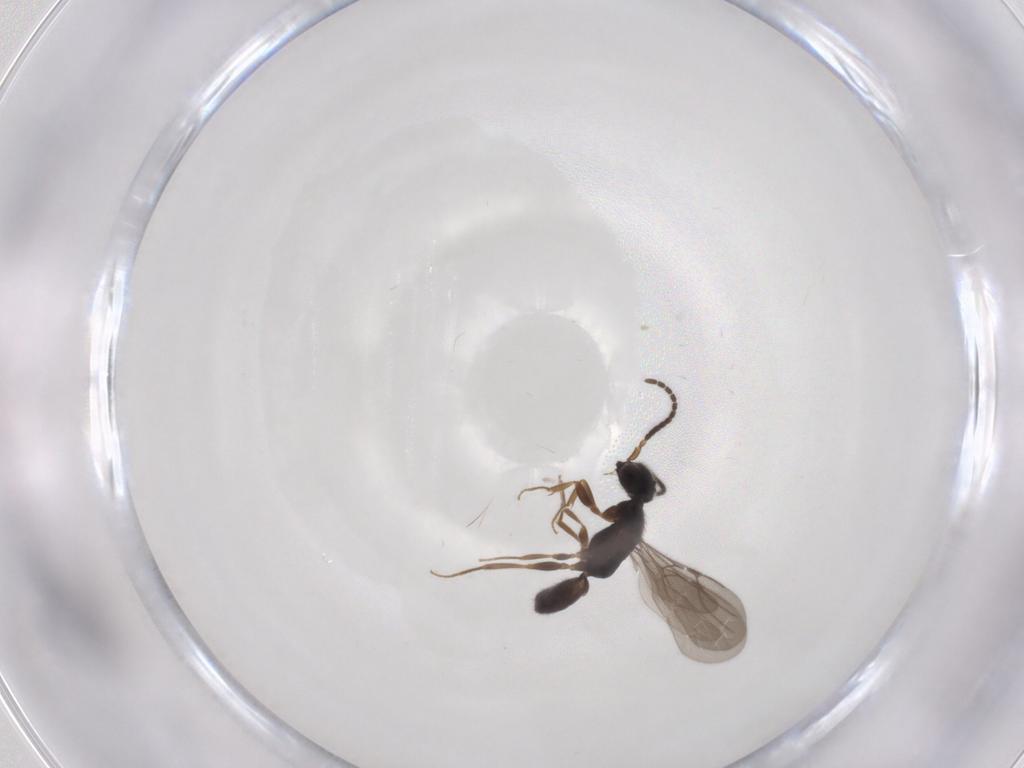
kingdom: Animalia
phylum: Arthropoda
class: Insecta
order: Hymenoptera
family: Bethylidae
